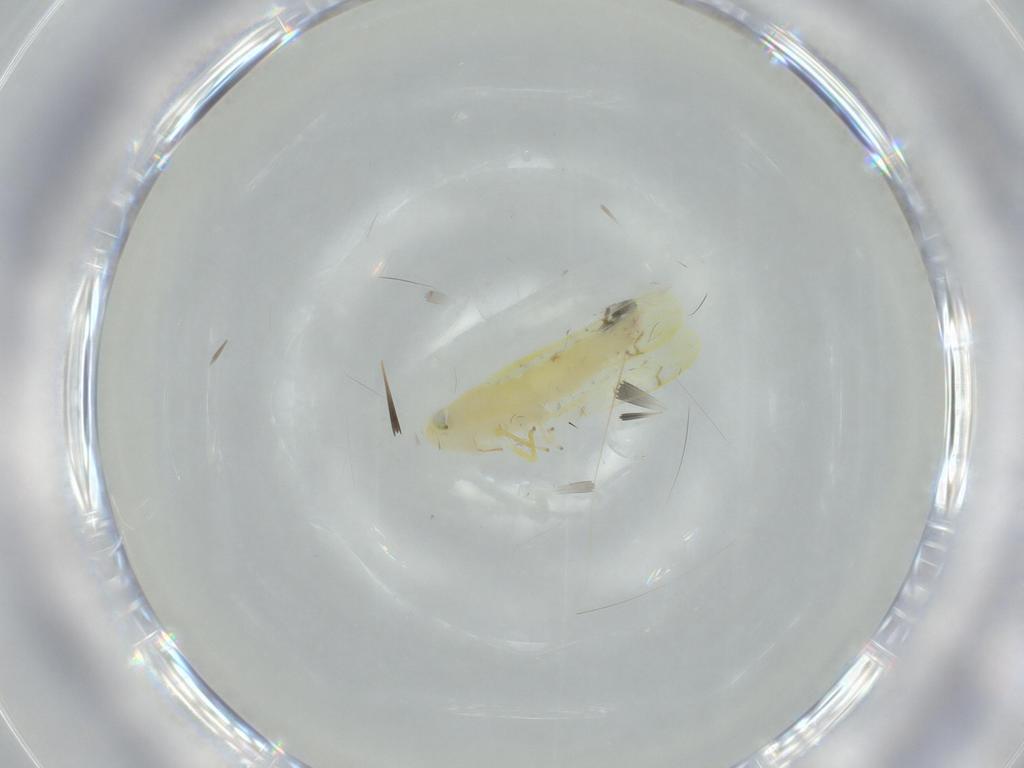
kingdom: Animalia
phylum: Arthropoda
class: Insecta
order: Hemiptera
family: Cicadellidae
